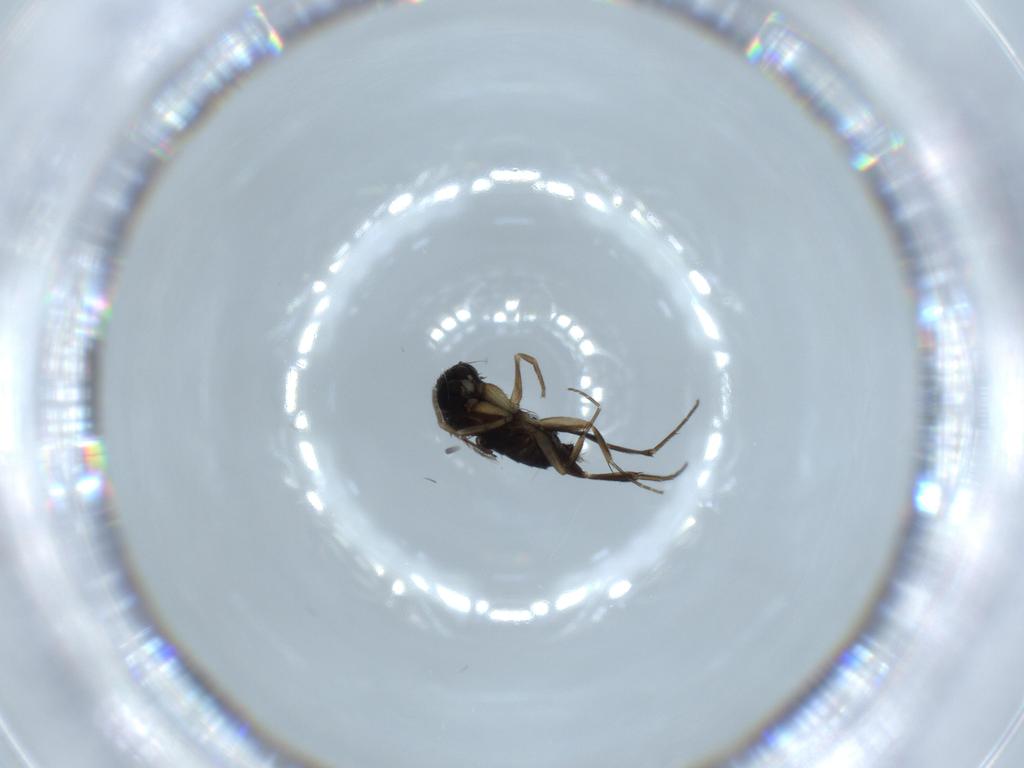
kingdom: Animalia
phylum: Arthropoda
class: Insecta
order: Diptera
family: Phoridae
